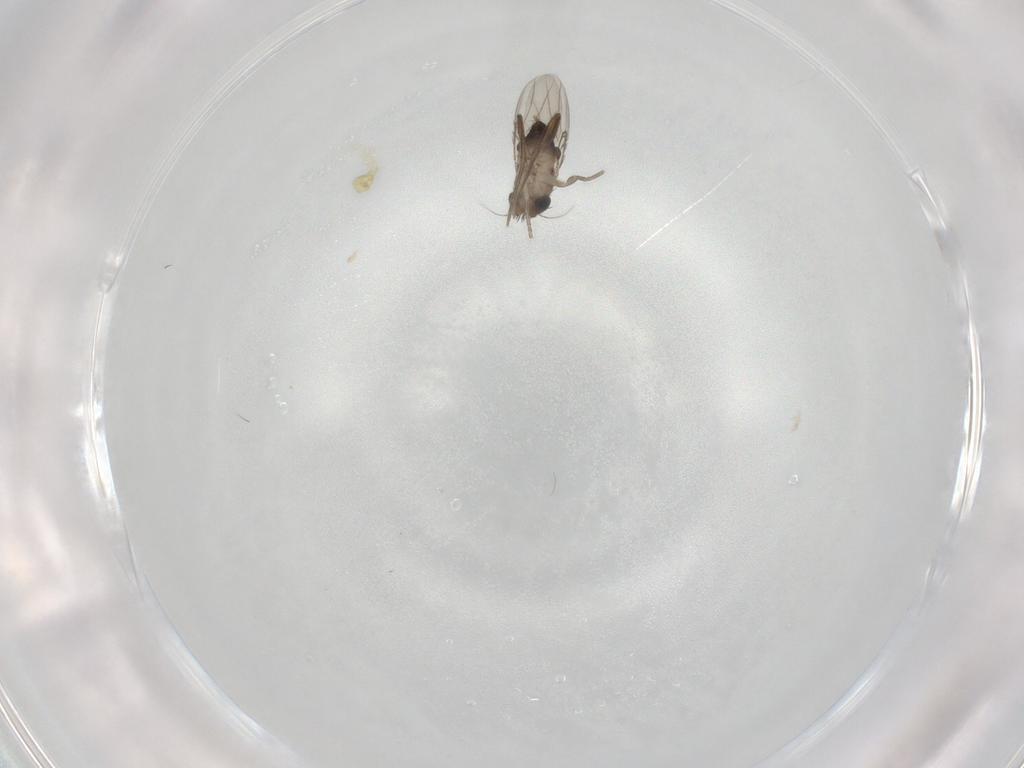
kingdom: Animalia
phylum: Arthropoda
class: Insecta
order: Diptera
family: Phoridae
